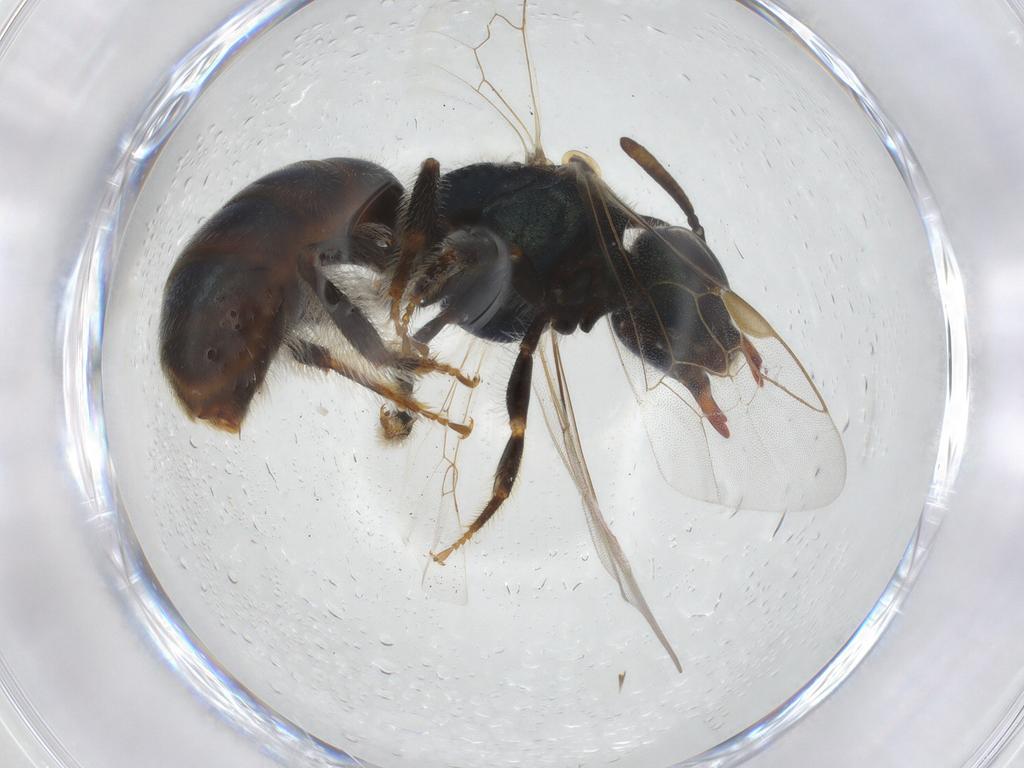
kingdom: Animalia
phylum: Arthropoda
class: Insecta
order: Hymenoptera
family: Halictidae
